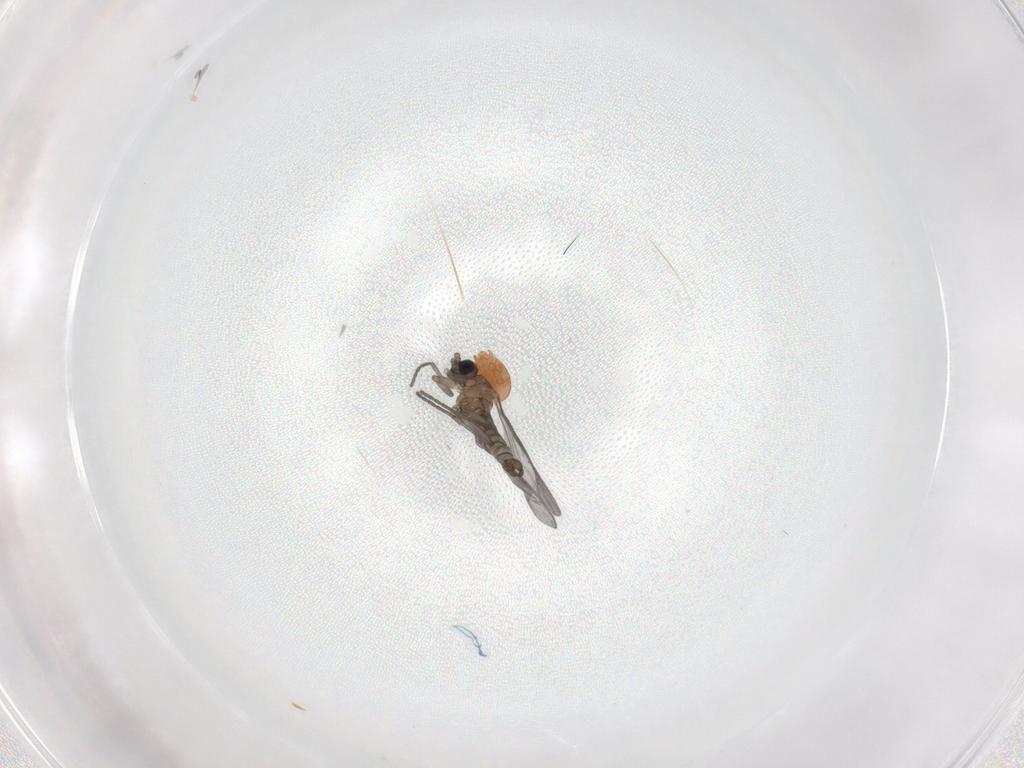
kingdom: Animalia
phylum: Arthropoda
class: Insecta
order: Diptera
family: Sciaridae
